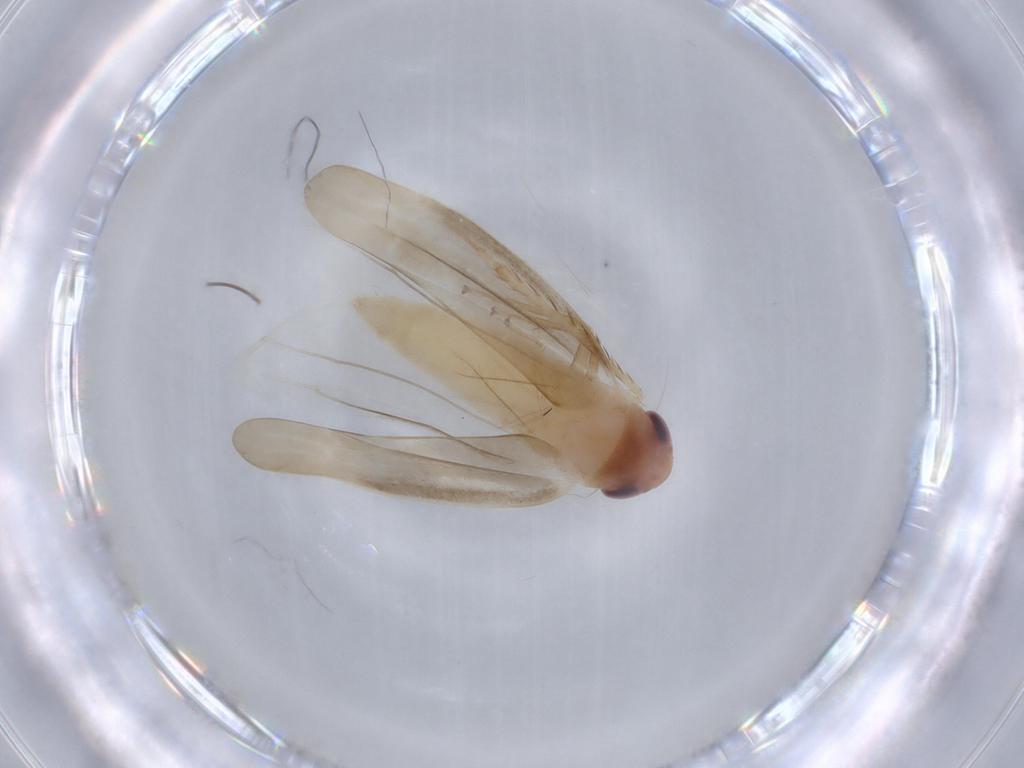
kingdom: Animalia
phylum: Arthropoda
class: Insecta
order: Hemiptera
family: Cicadellidae
